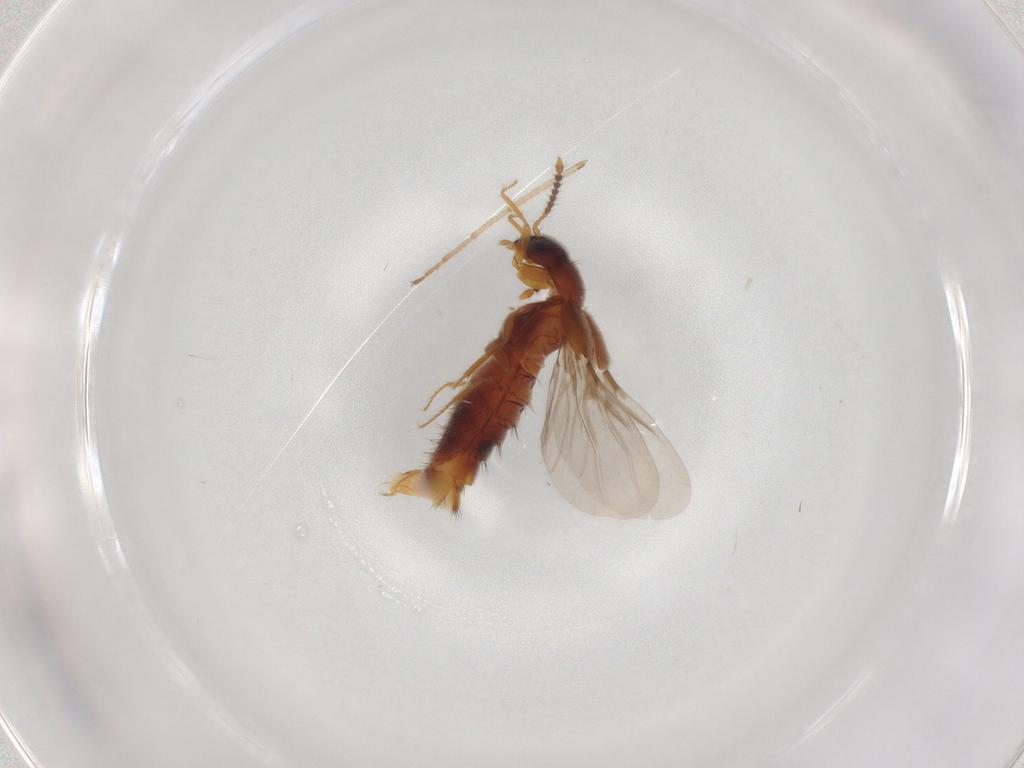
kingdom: Animalia
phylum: Arthropoda
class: Insecta
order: Coleoptera
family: Staphylinidae
